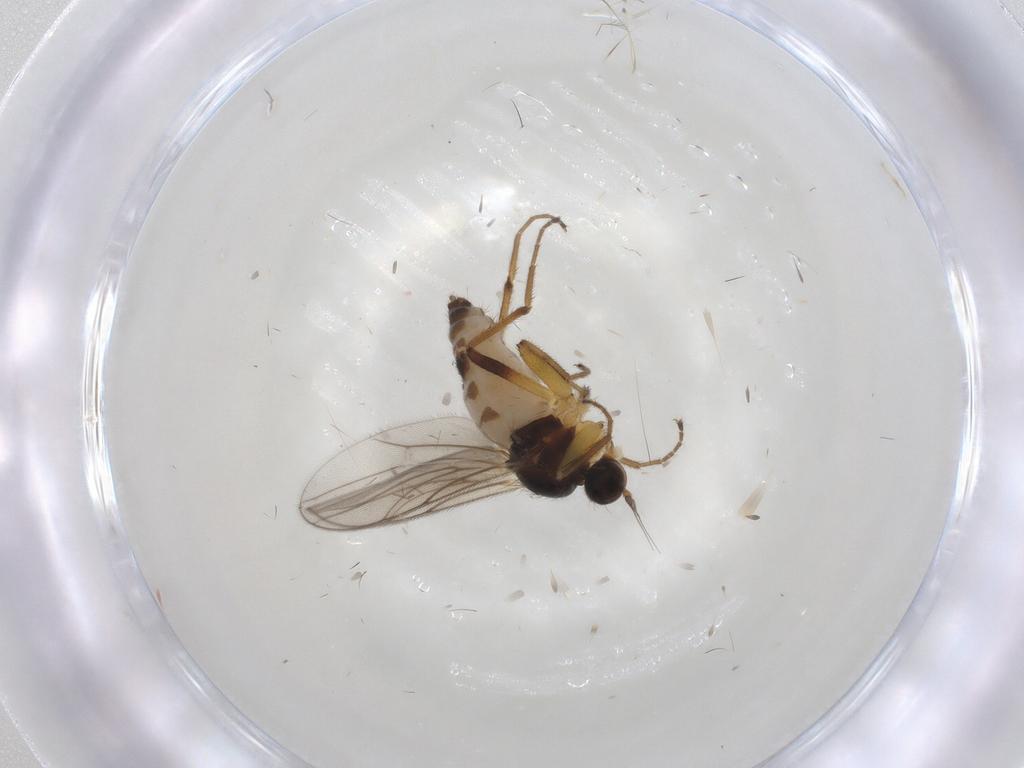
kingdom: Animalia
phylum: Arthropoda
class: Insecta
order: Diptera
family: Hybotidae
